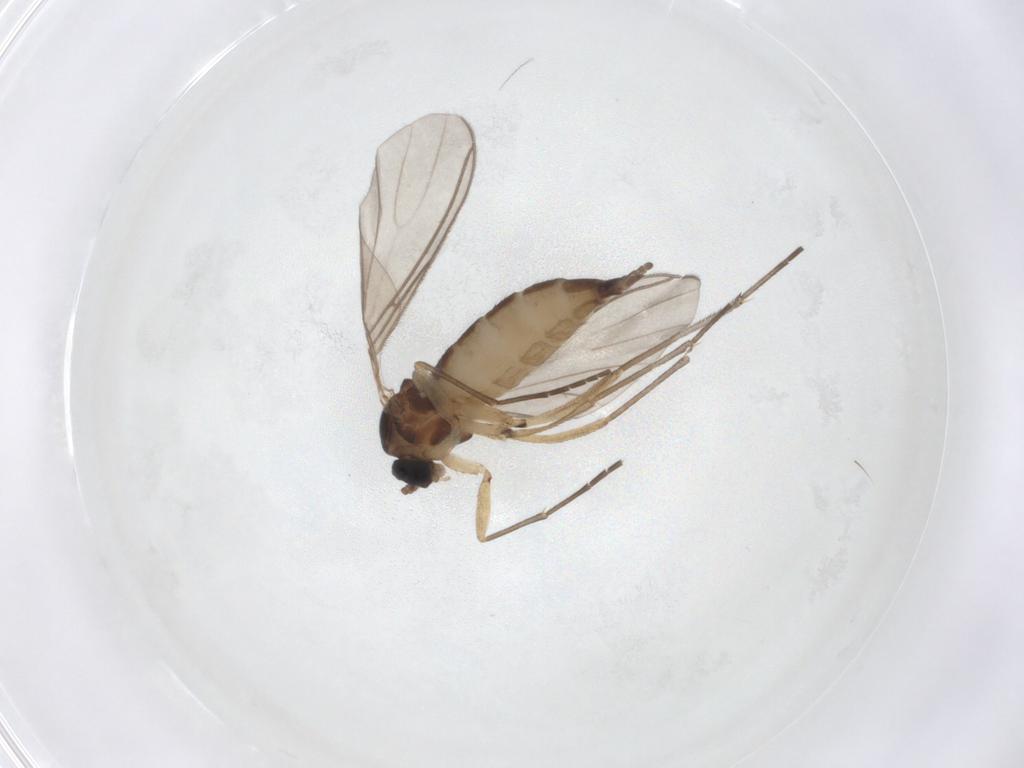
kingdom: Animalia
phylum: Arthropoda
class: Insecta
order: Diptera
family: Sciaridae
